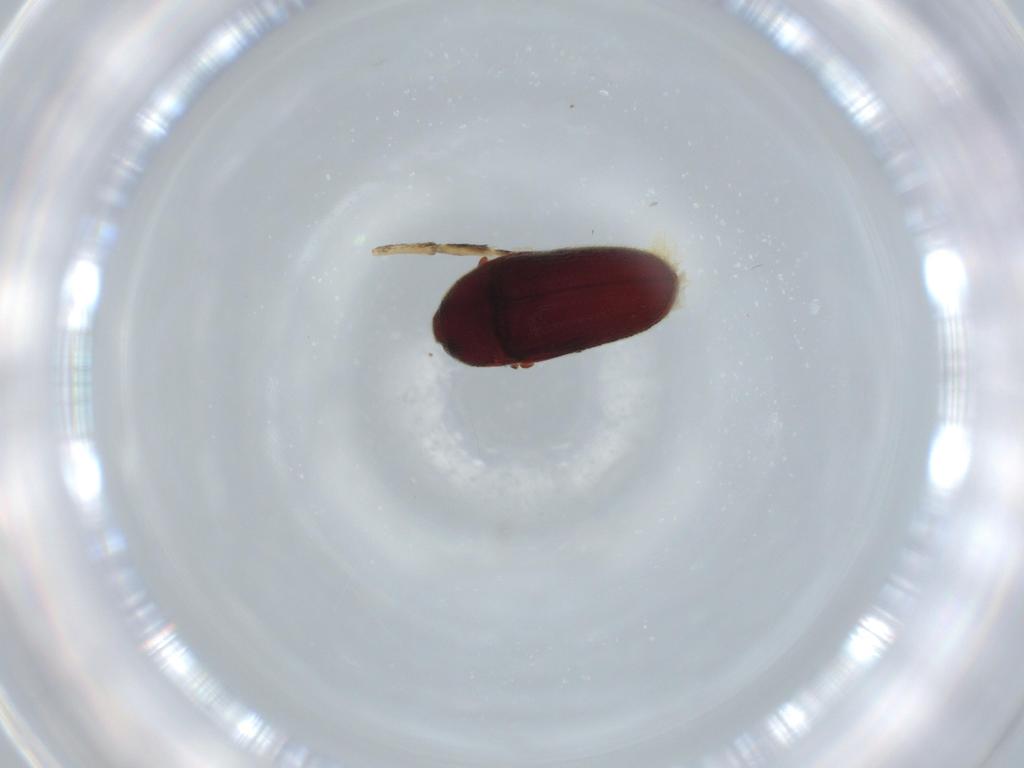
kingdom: Animalia
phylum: Arthropoda
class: Insecta
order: Coleoptera
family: Throscidae
